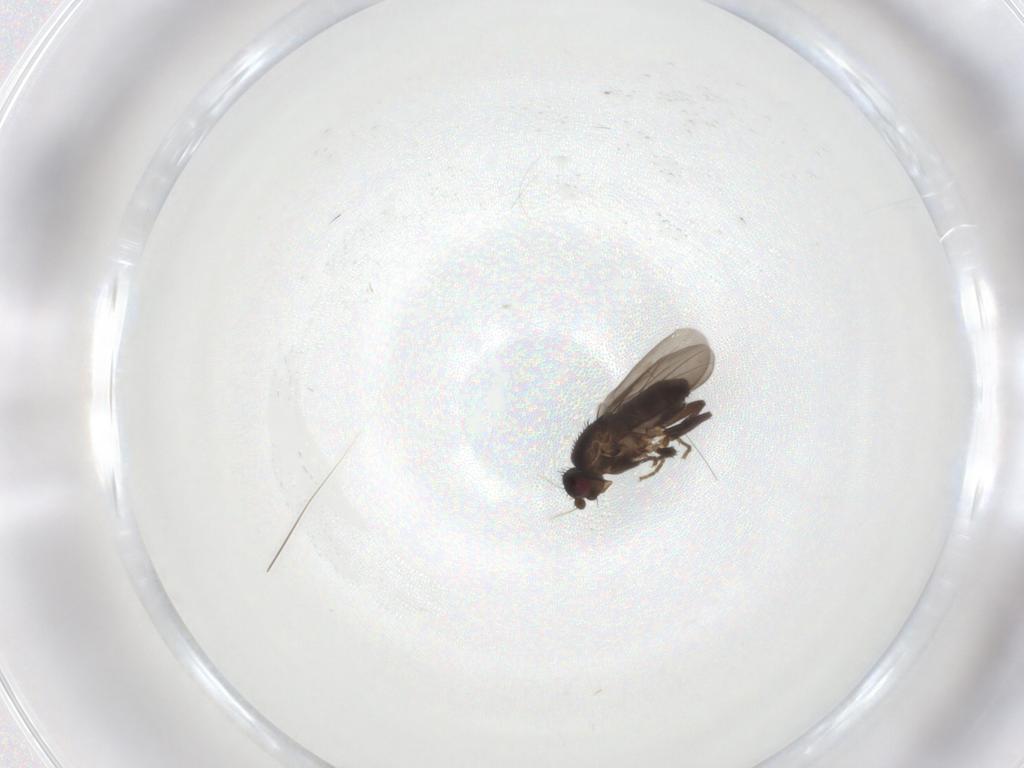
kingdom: Animalia
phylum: Arthropoda
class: Insecta
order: Diptera
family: Sphaeroceridae
